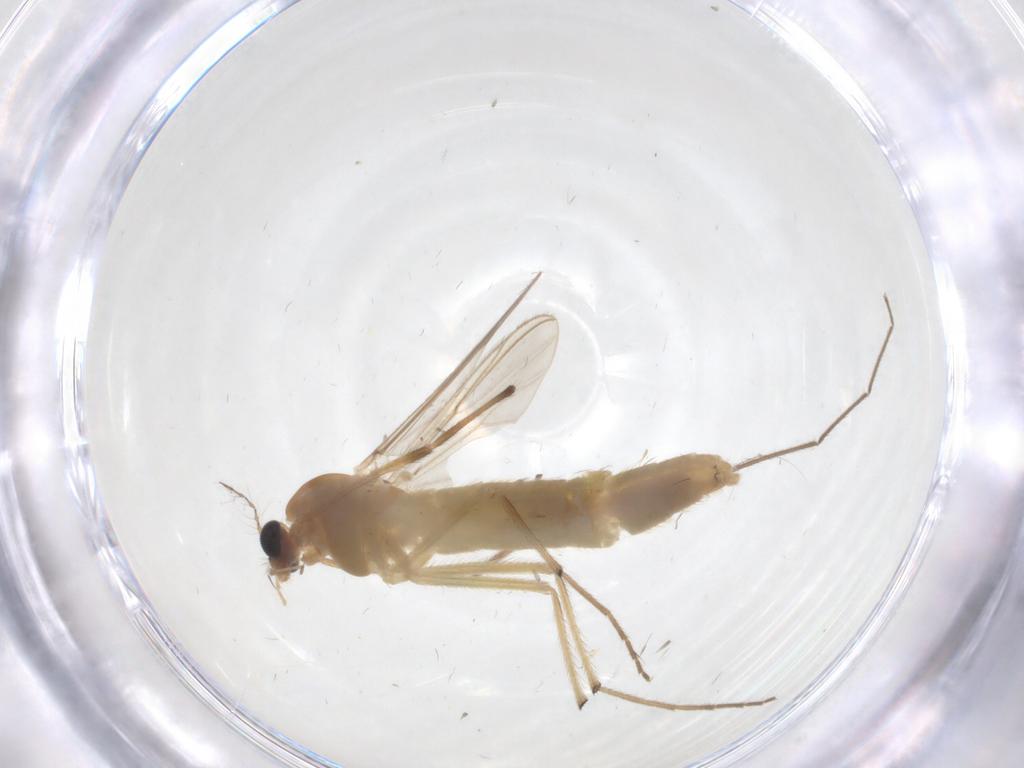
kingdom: Animalia
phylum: Arthropoda
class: Insecta
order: Diptera
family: Chironomidae
